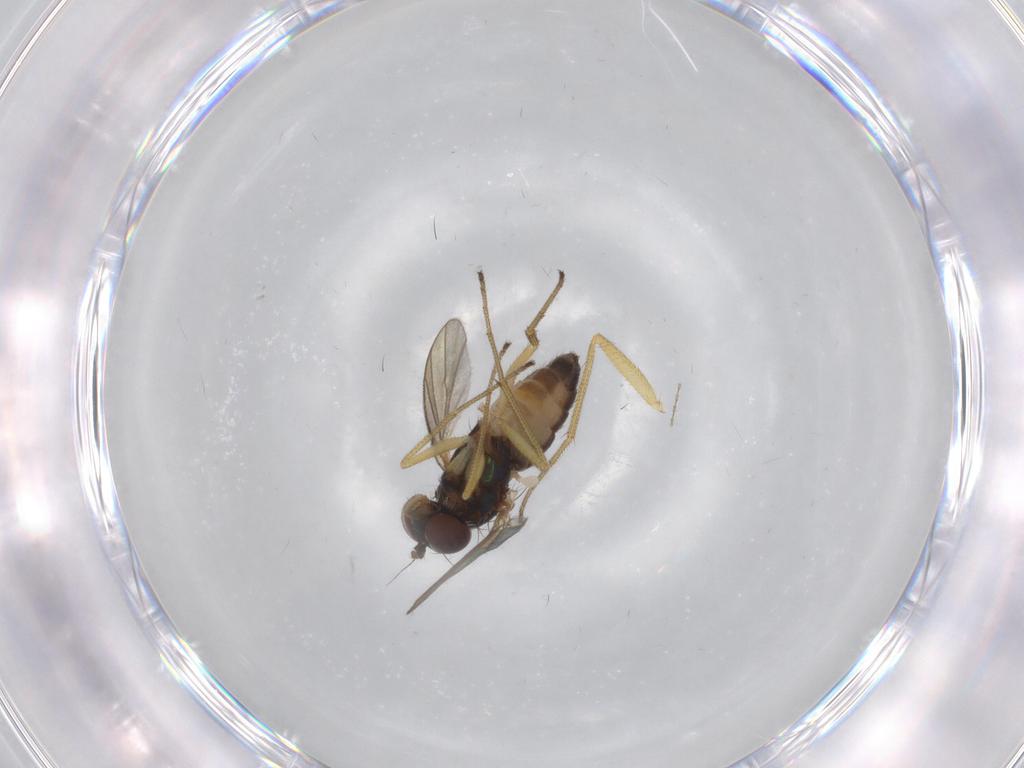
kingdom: Animalia
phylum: Arthropoda
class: Insecta
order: Diptera
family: Dolichopodidae
